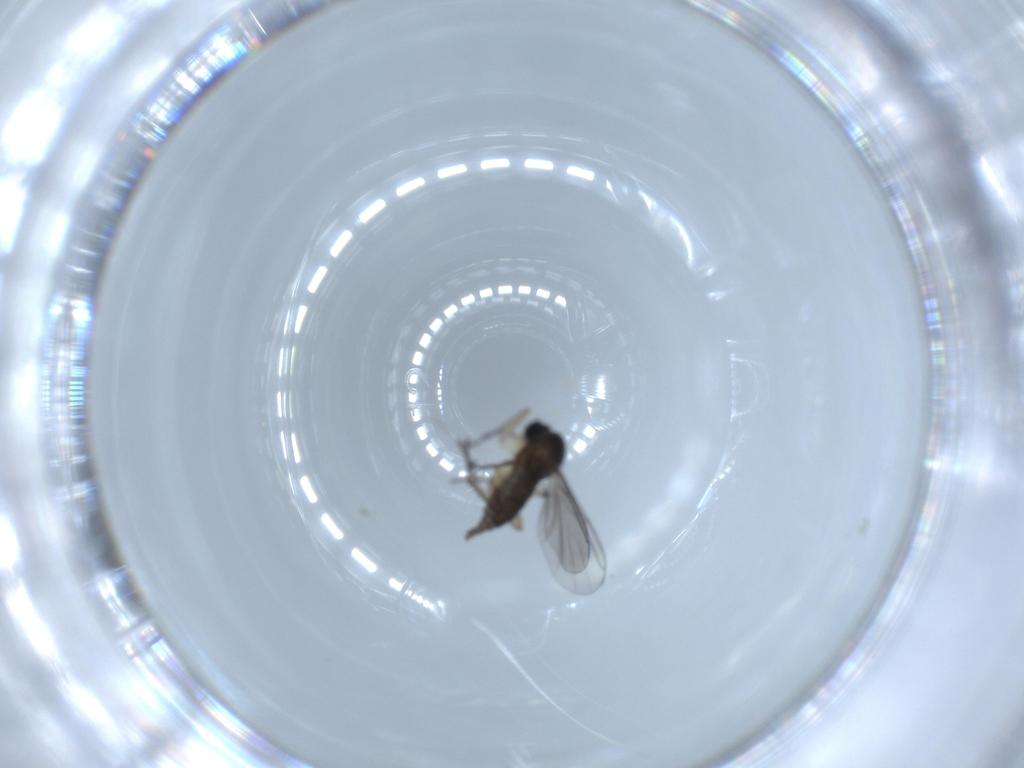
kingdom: Animalia
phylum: Arthropoda
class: Insecta
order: Diptera
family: Sciaridae
